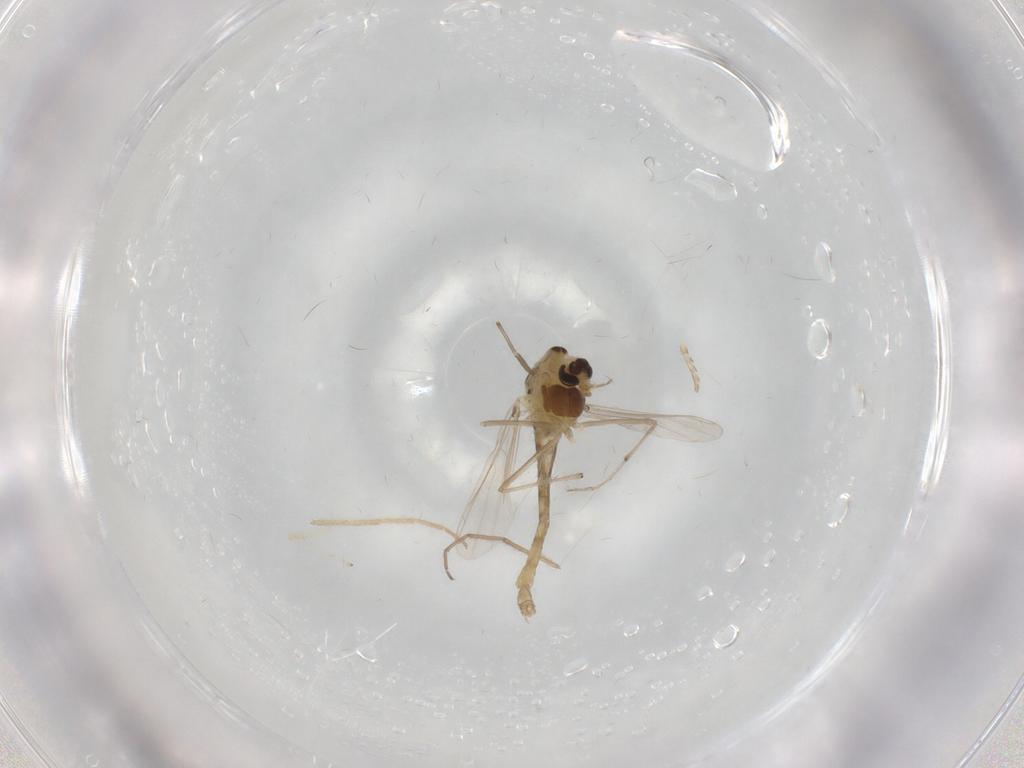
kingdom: Animalia
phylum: Arthropoda
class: Insecta
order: Diptera
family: Chironomidae
